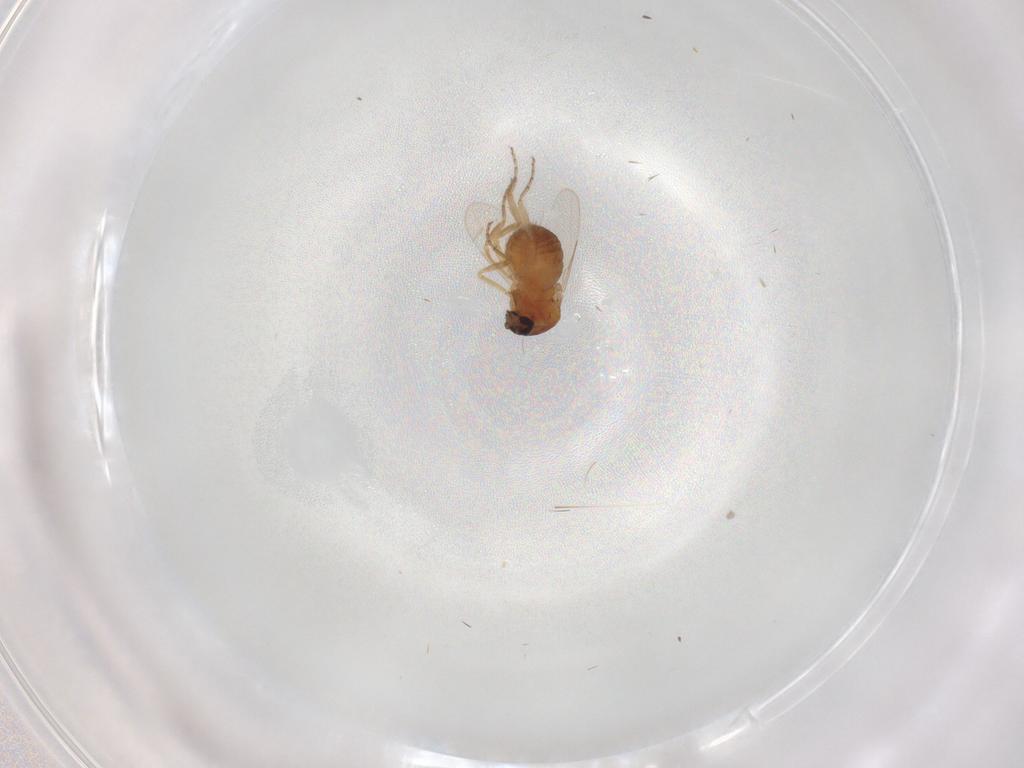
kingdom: Animalia
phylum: Arthropoda
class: Insecta
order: Diptera
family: Ceratopogonidae
